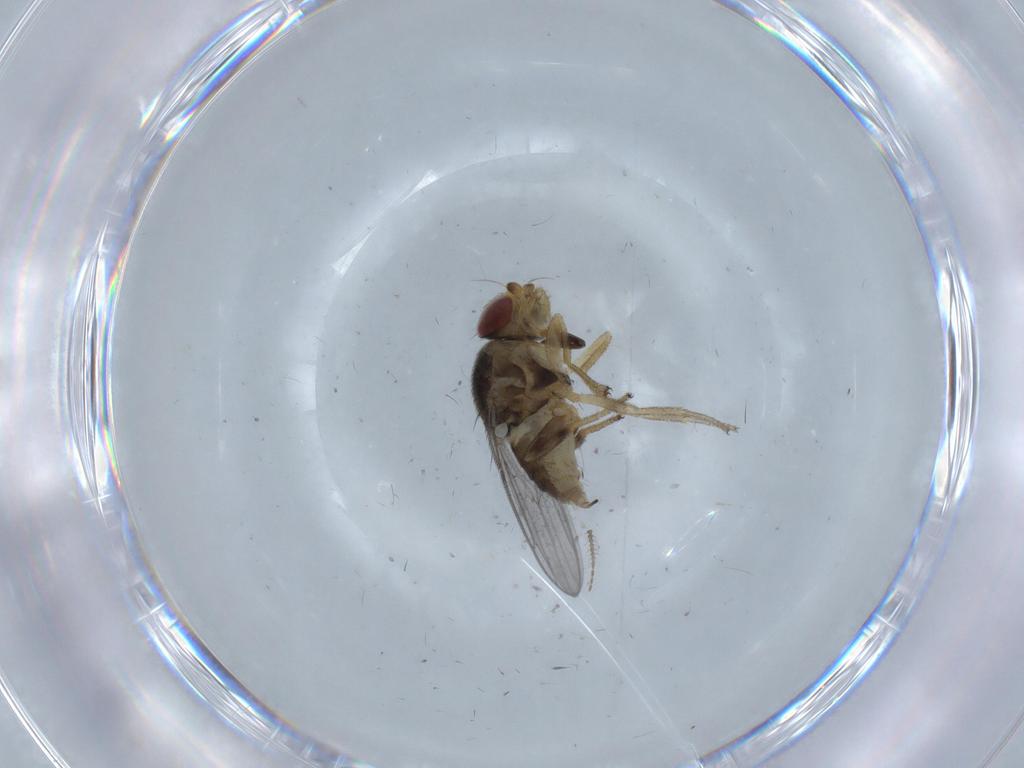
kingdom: Animalia
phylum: Arthropoda
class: Insecta
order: Diptera
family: Chloropidae
